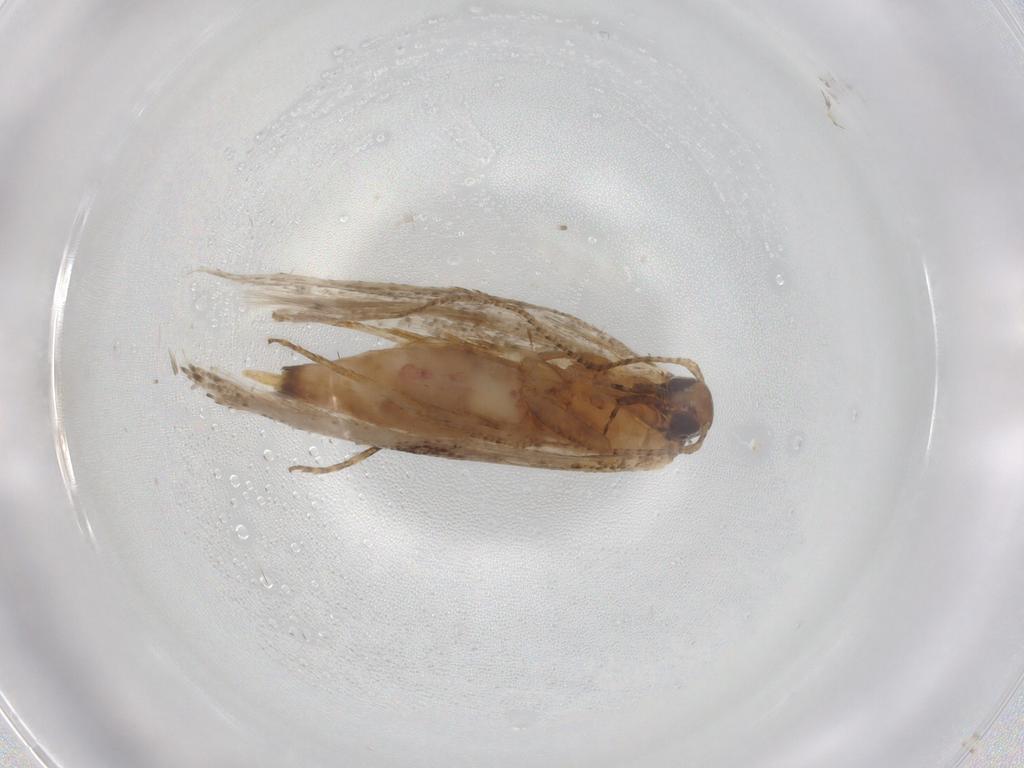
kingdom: Animalia
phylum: Arthropoda
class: Insecta
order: Lepidoptera
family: Gelechiidae
